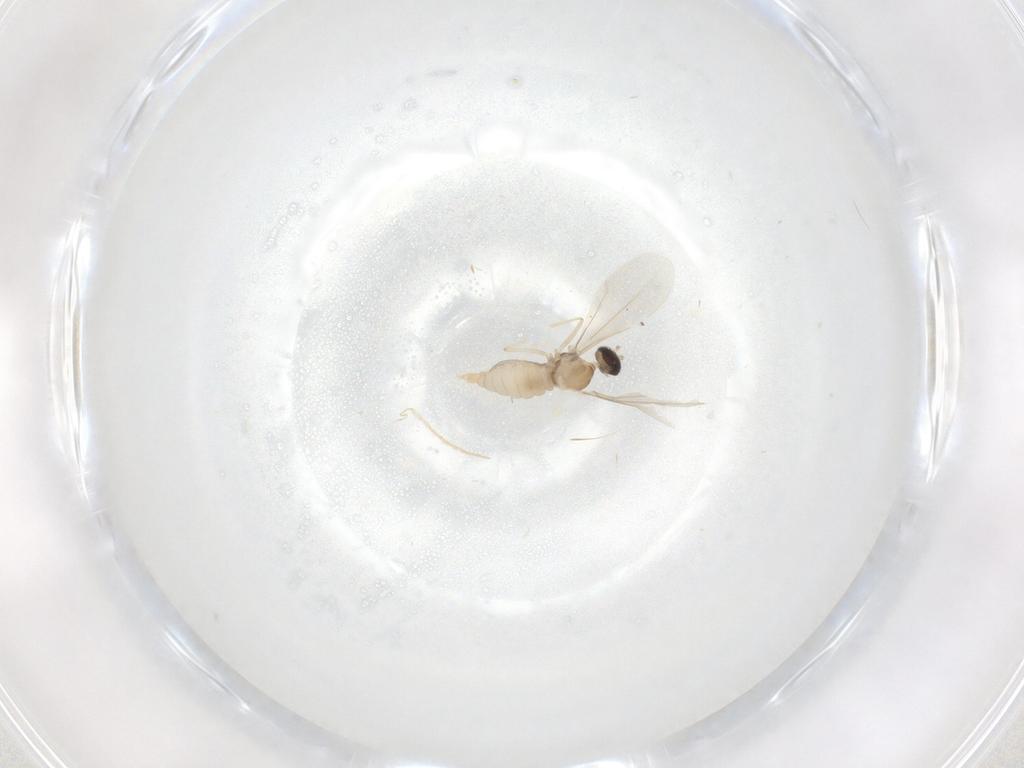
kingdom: Animalia
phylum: Arthropoda
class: Insecta
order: Diptera
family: Cecidomyiidae
